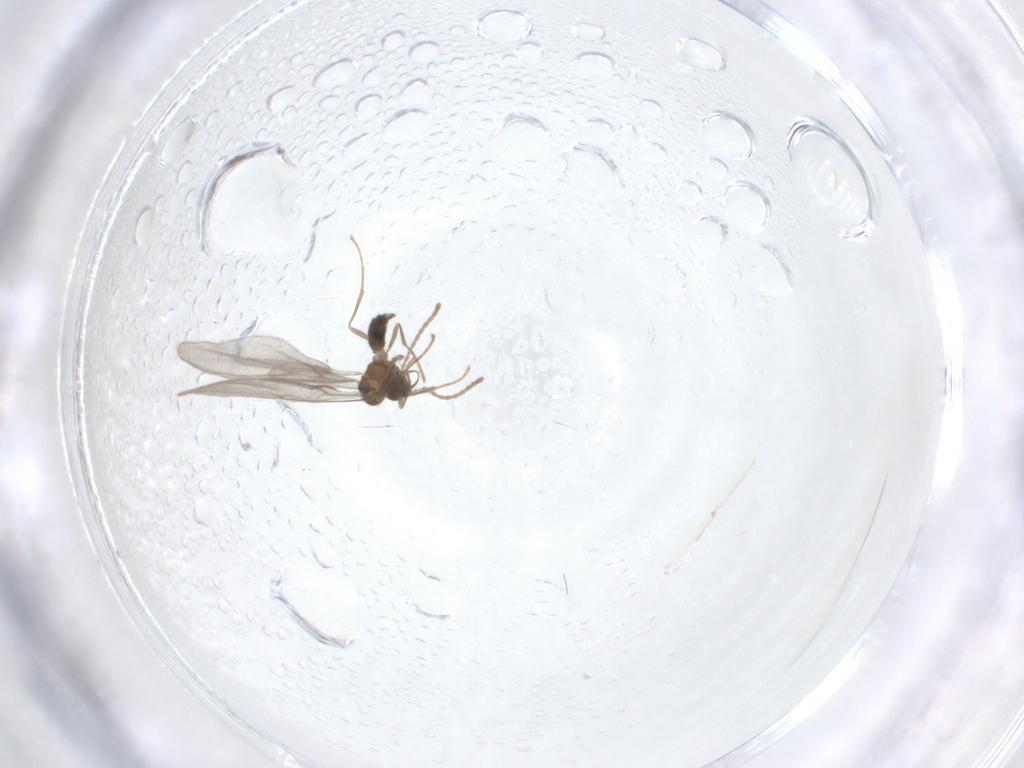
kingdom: Animalia
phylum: Arthropoda
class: Insecta
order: Hymenoptera
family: Formicidae
